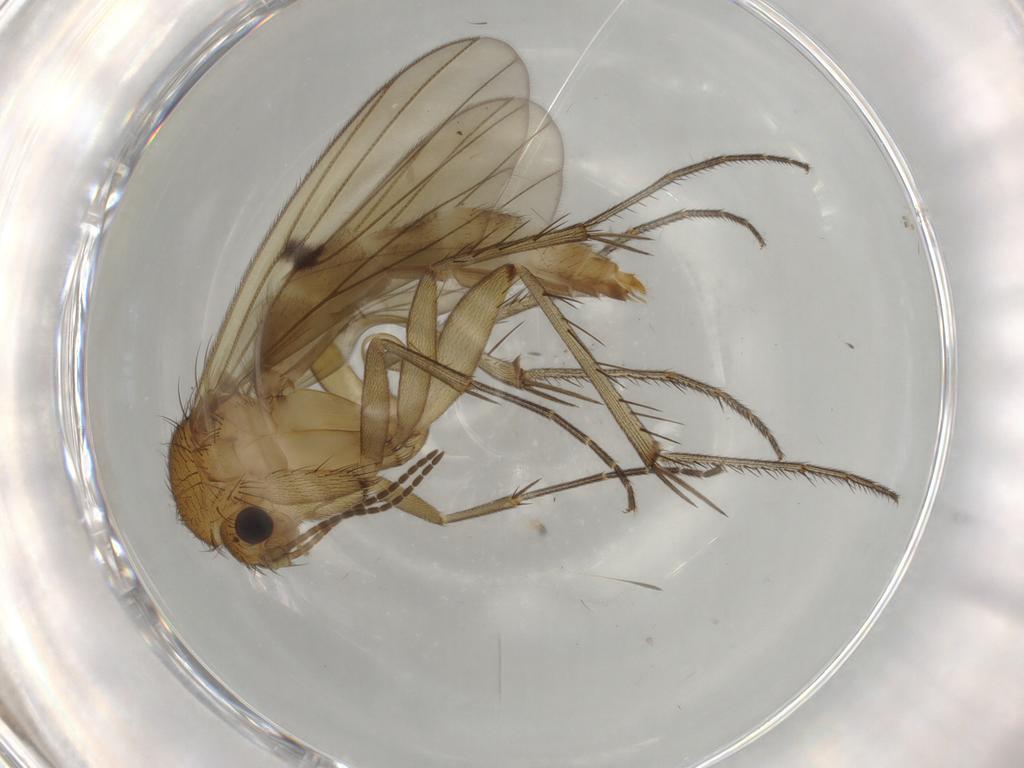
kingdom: Animalia
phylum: Arthropoda
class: Insecta
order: Diptera
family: Mycetophilidae
